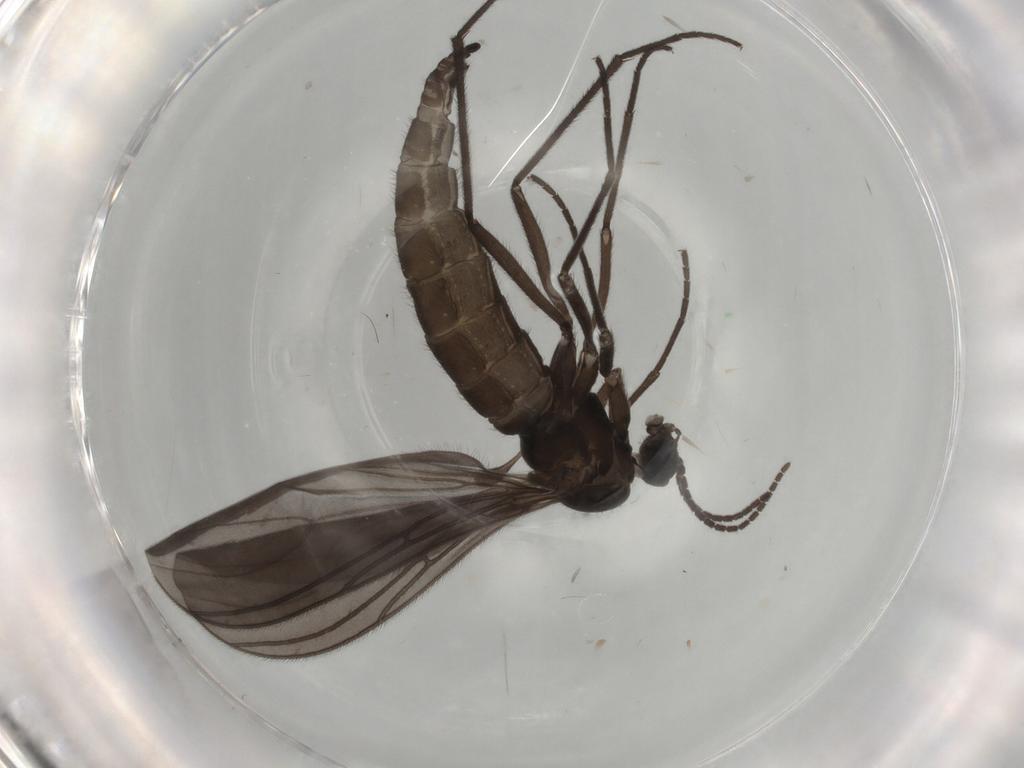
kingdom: Animalia
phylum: Arthropoda
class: Insecta
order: Diptera
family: Sciaridae
